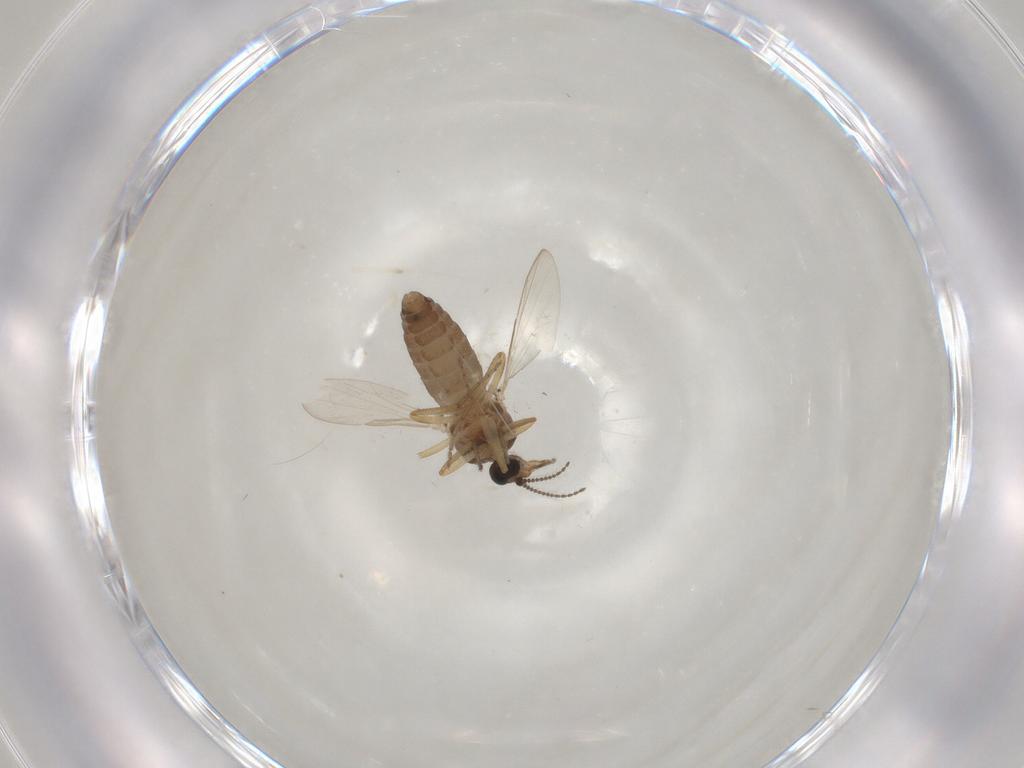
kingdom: Animalia
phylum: Arthropoda
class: Insecta
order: Diptera
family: Ceratopogonidae
